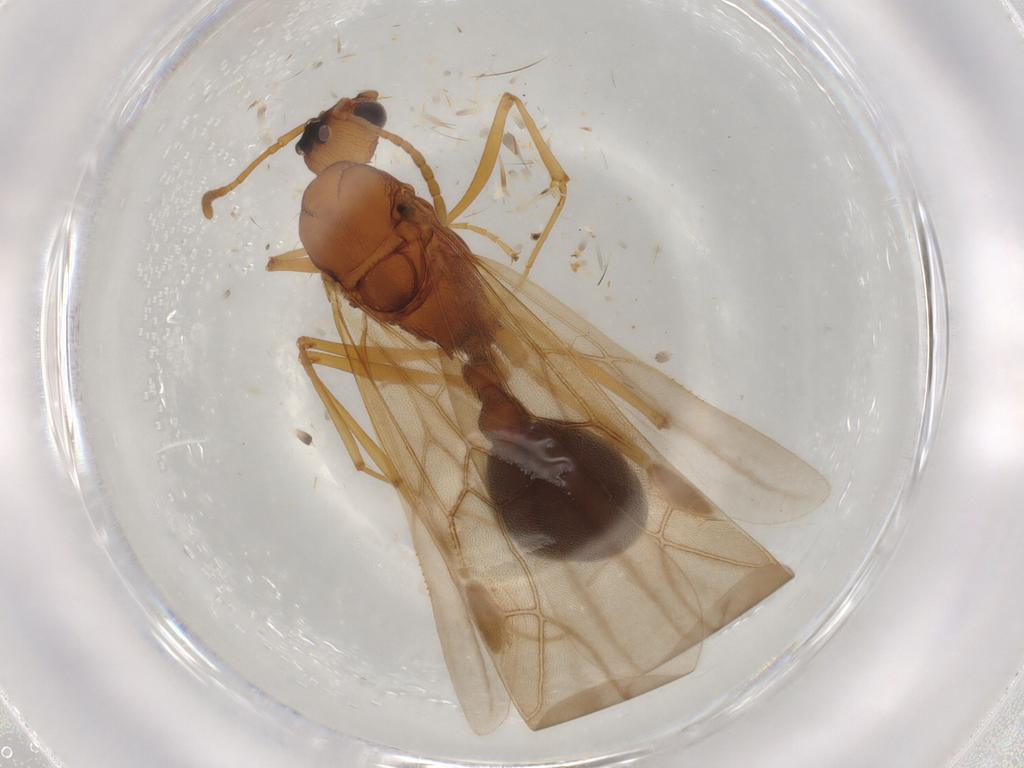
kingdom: Animalia
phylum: Arthropoda
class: Insecta
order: Hymenoptera
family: Formicidae
